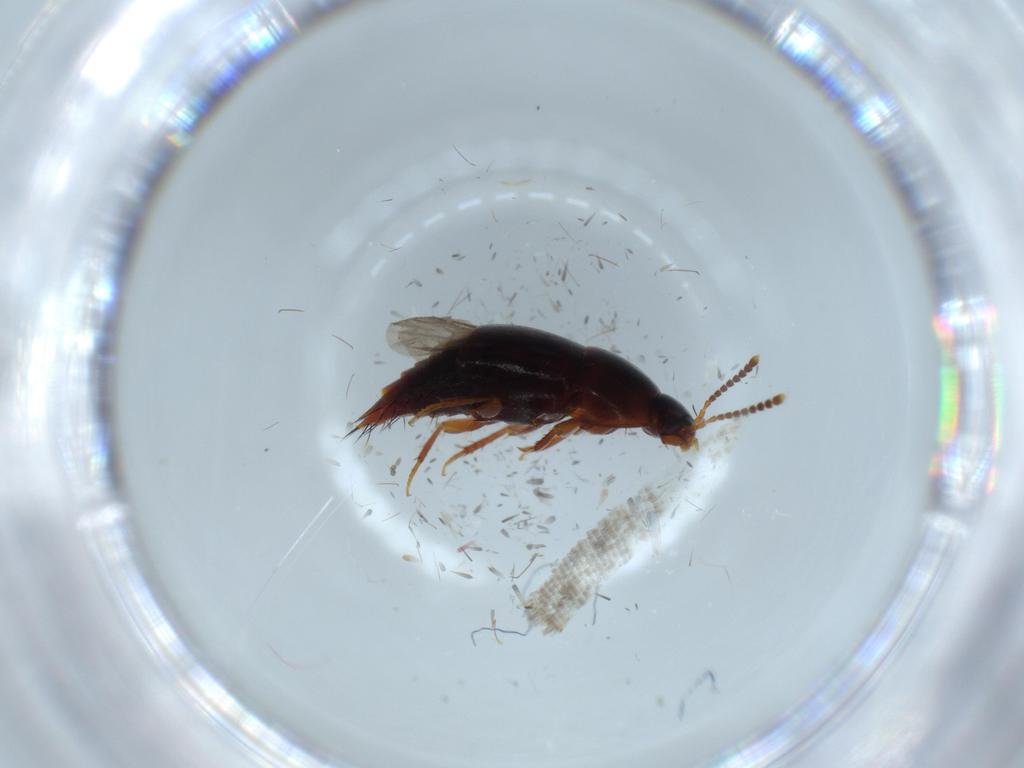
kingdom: Animalia
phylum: Arthropoda
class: Insecta
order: Coleoptera
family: Staphylinidae
